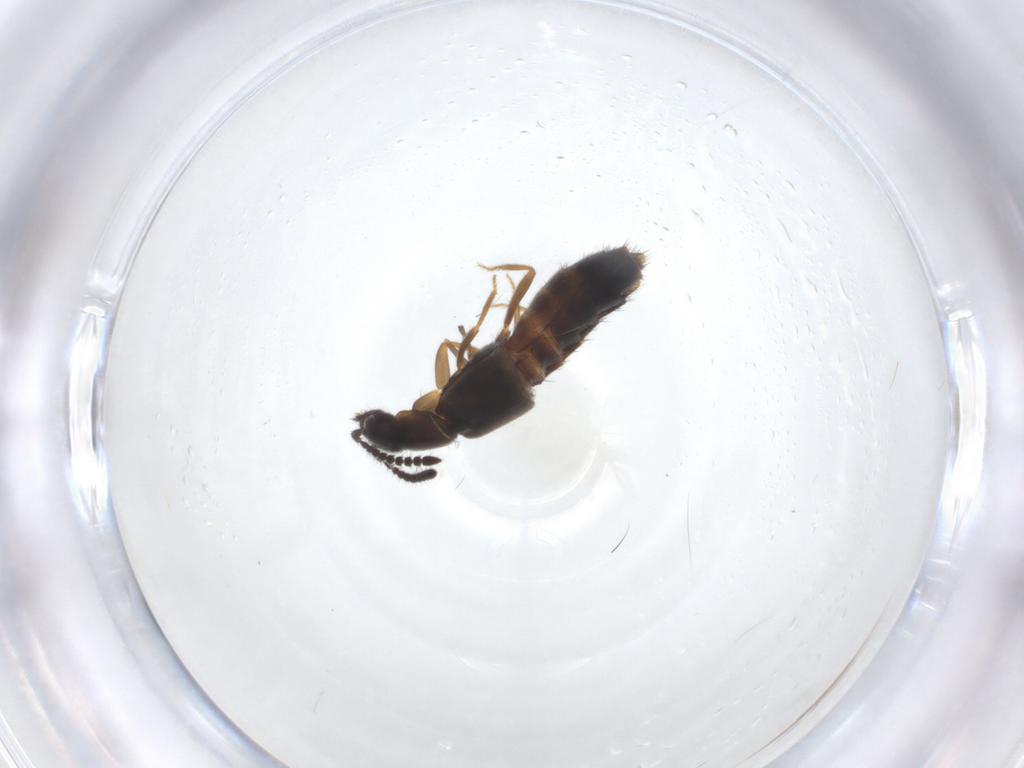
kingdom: Animalia
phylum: Arthropoda
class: Insecta
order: Coleoptera
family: Staphylinidae
